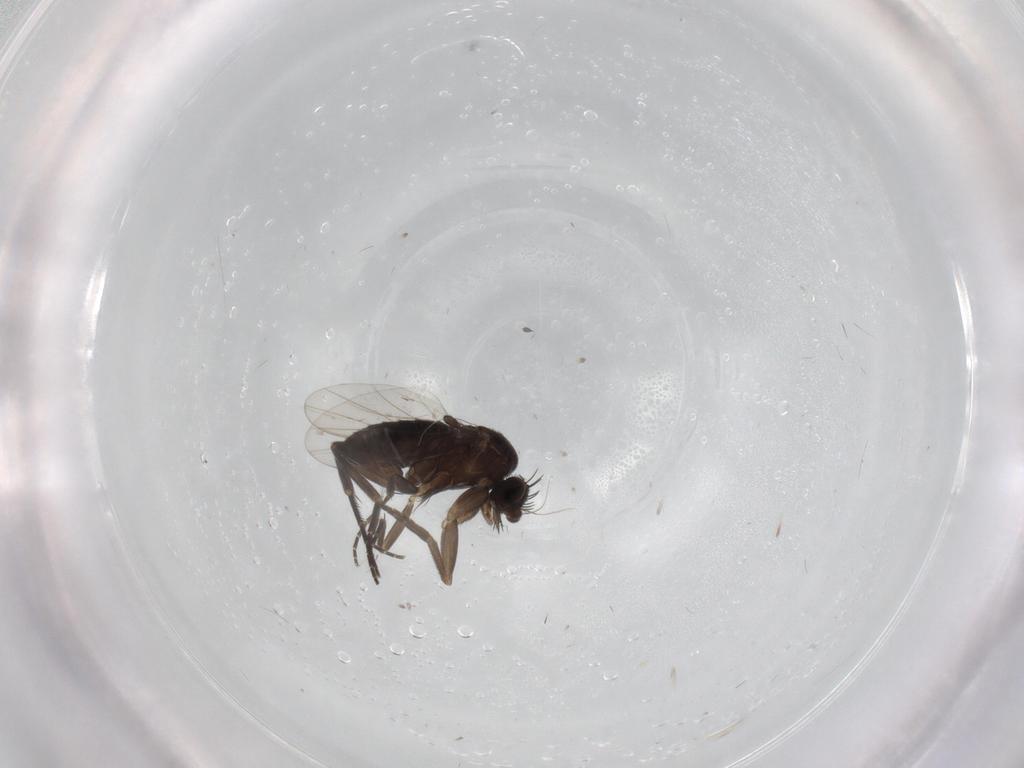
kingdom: Animalia
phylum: Arthropoda
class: Insecta
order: Diptera
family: Phoridae
